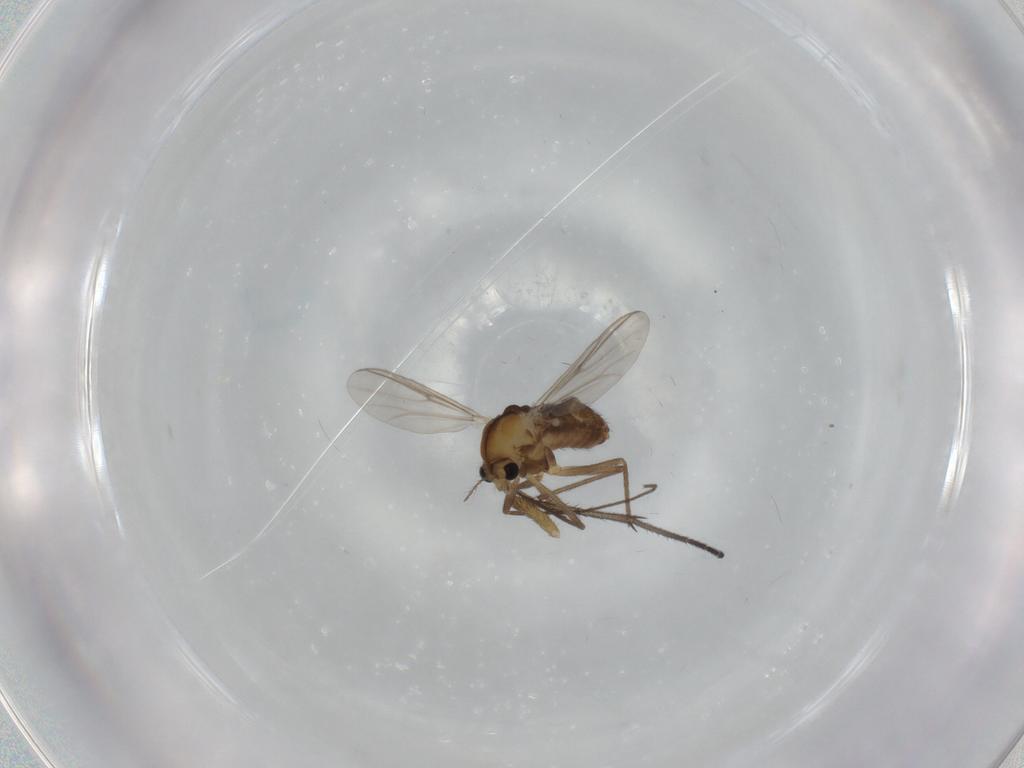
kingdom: Animalia
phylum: Arthropoda
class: Insecta
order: Diptera
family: Chironomidae
